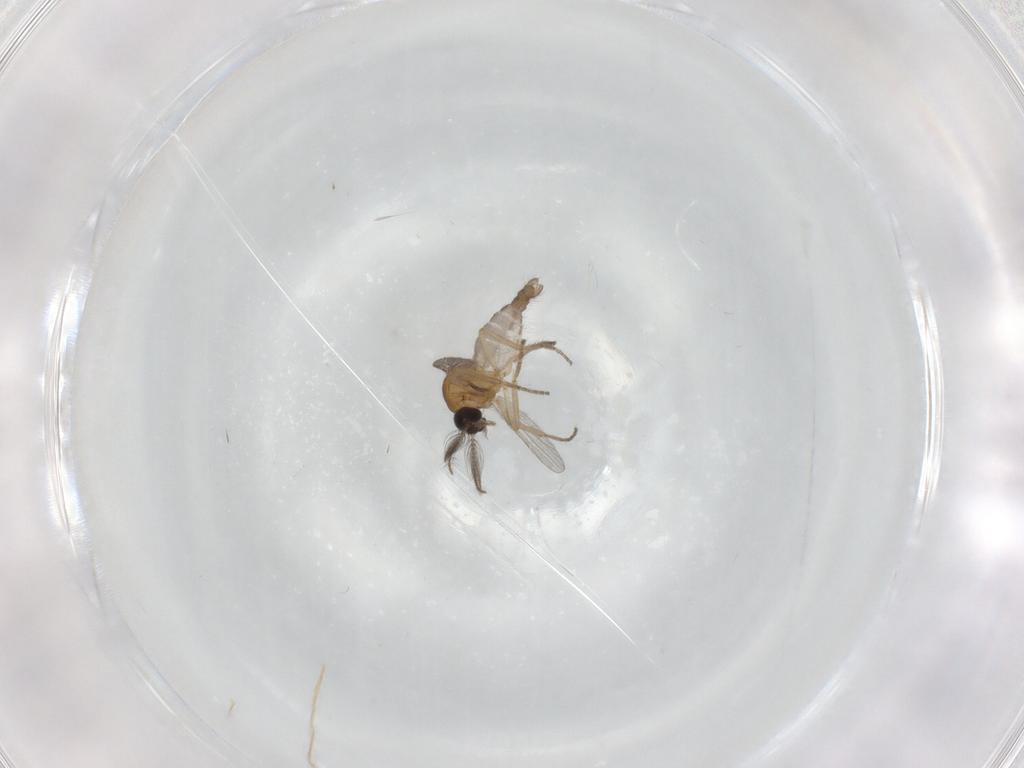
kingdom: Animalia
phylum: Arthropoda
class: Insecta
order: Diptera
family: Ceratopogonidae
